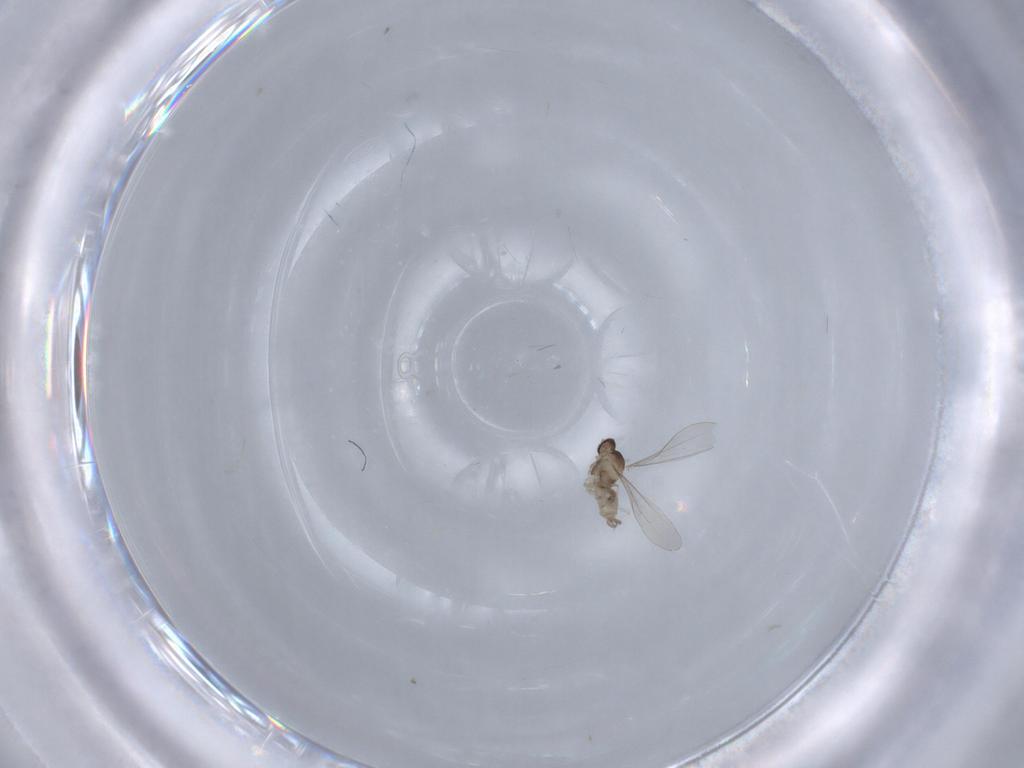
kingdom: Animalia
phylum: Arthropoda
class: Insecta
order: Diptera
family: Cecidomyiidae
